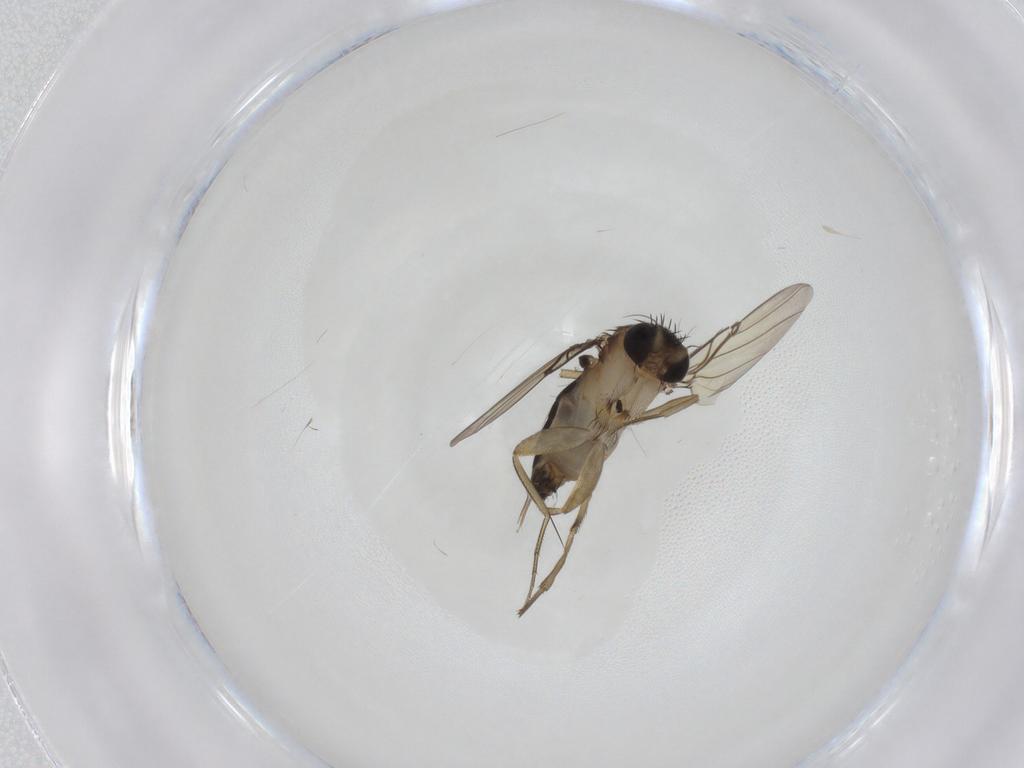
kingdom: Animalia
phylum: Arthropoda
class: Insecta
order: Diptera
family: Phoridae
